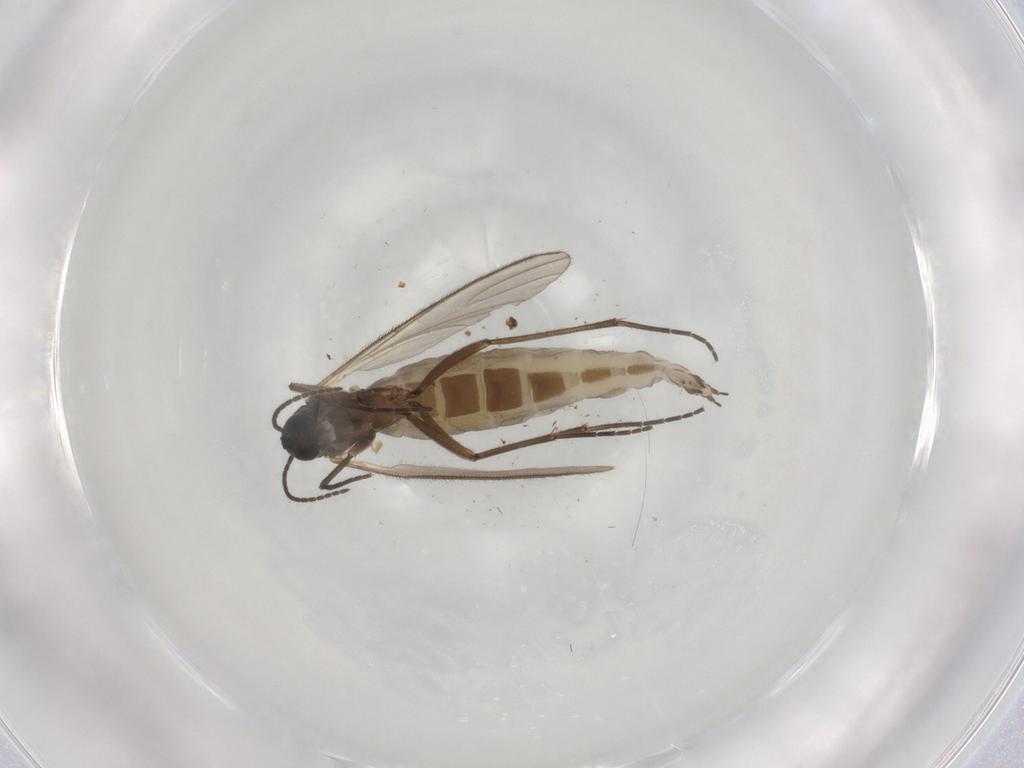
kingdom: Animalia
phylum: Arthropoda
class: Insecta
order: Diptera
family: Sciaridae
